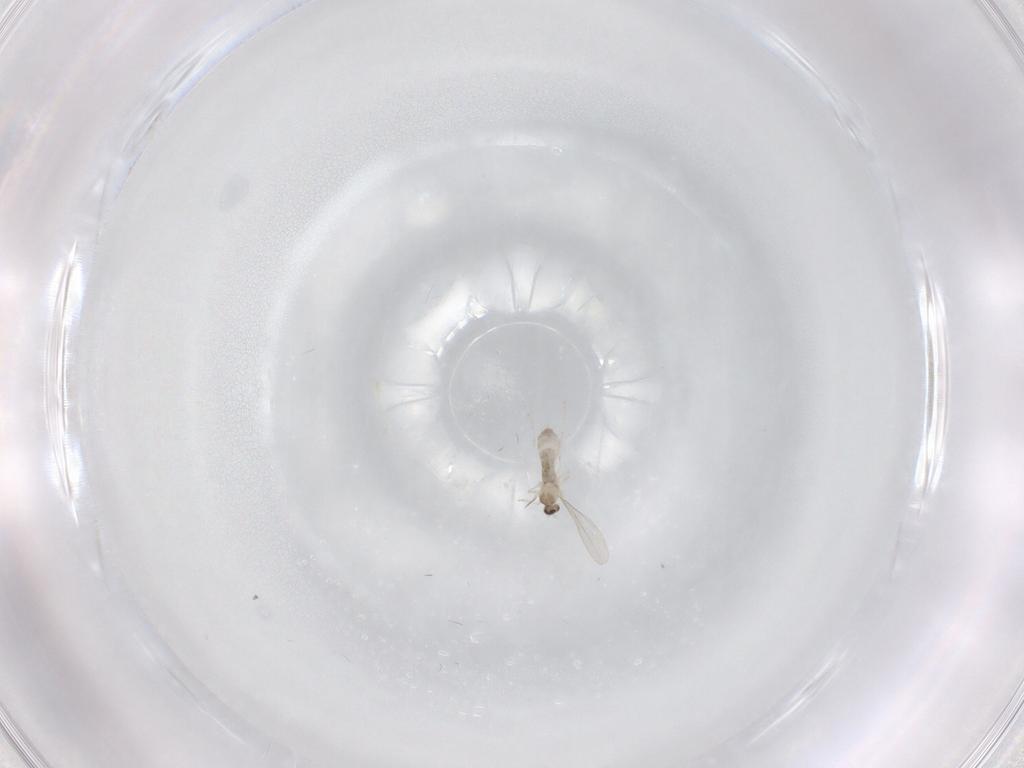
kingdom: Animalia
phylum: Arthropoda
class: Insecta
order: Diptera
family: Cecidomyiidae
